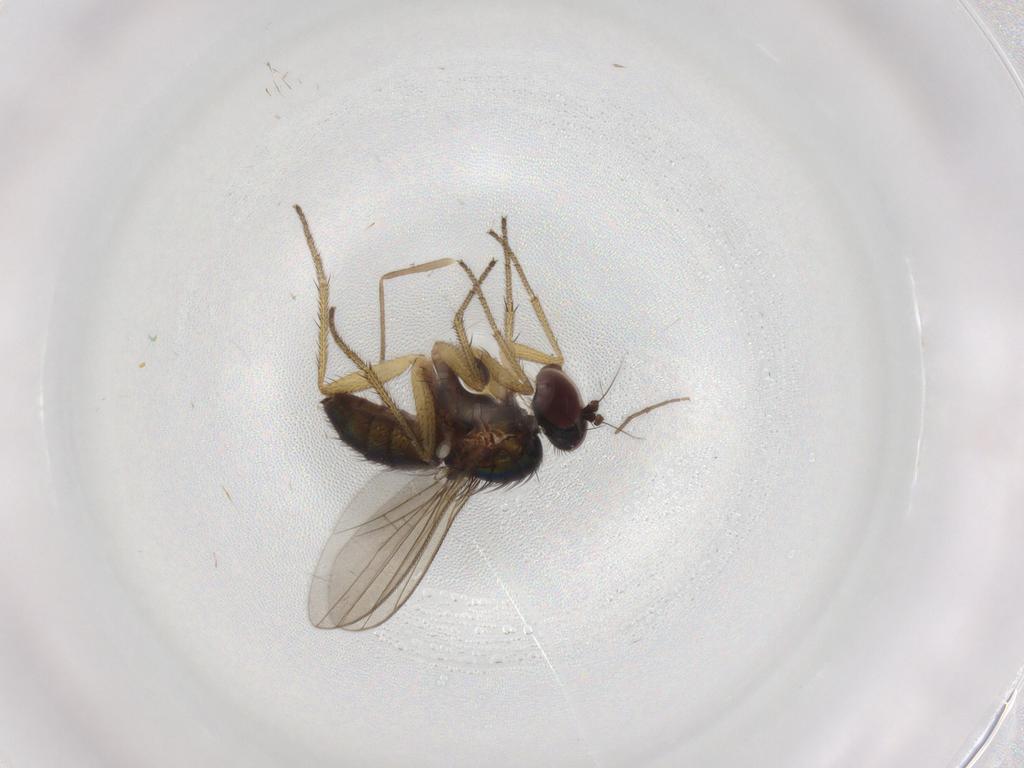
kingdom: Animalia
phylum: Arthropoda
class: Insecta
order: Diptera
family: Dolichopodidae
